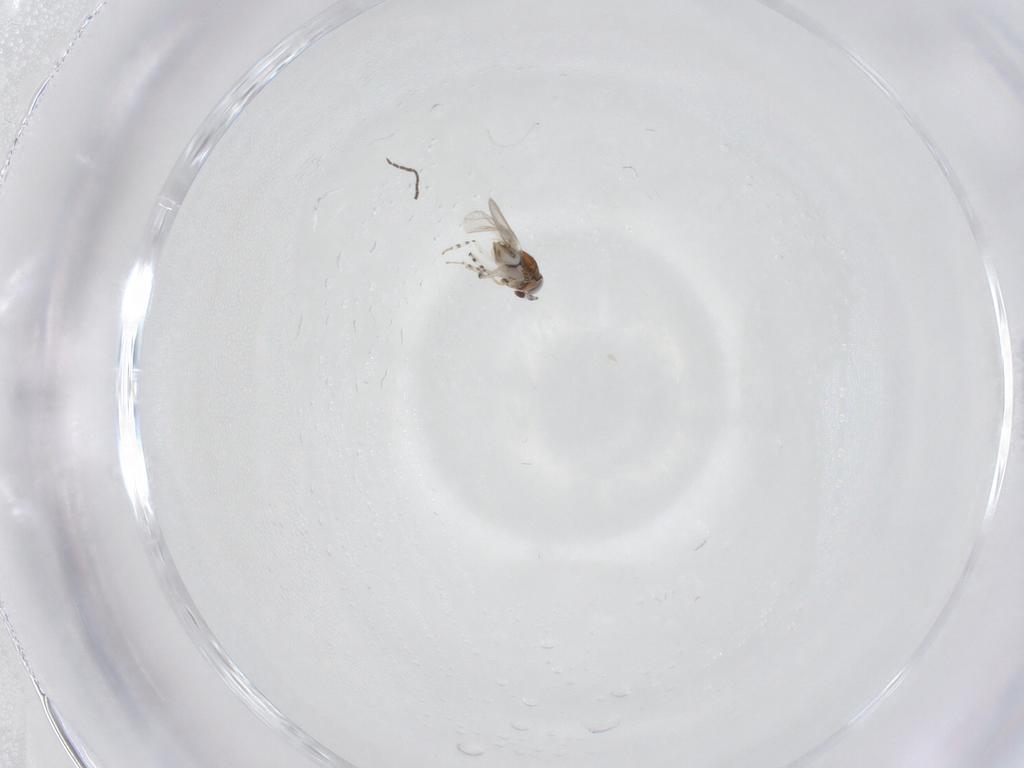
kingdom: Animalia
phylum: Arthropoda
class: Insecta
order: Diptera
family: Sciaridae
